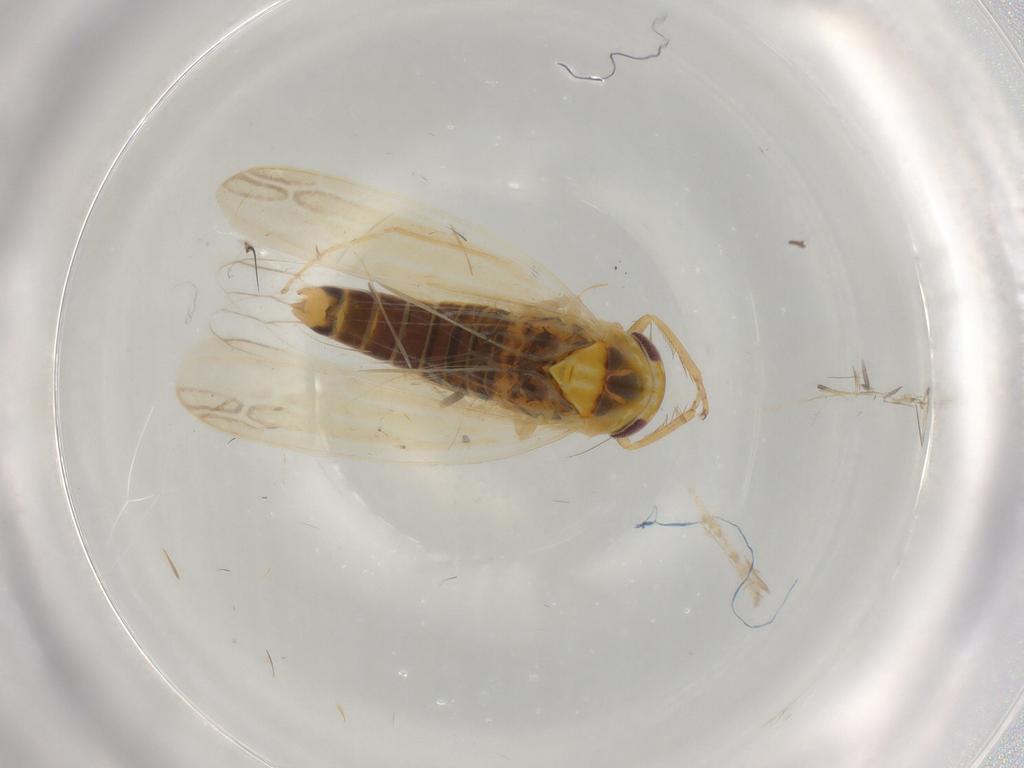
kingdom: Animalia
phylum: Arthropoda
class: Insecta
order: Hemiptera
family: Cicadellidae
